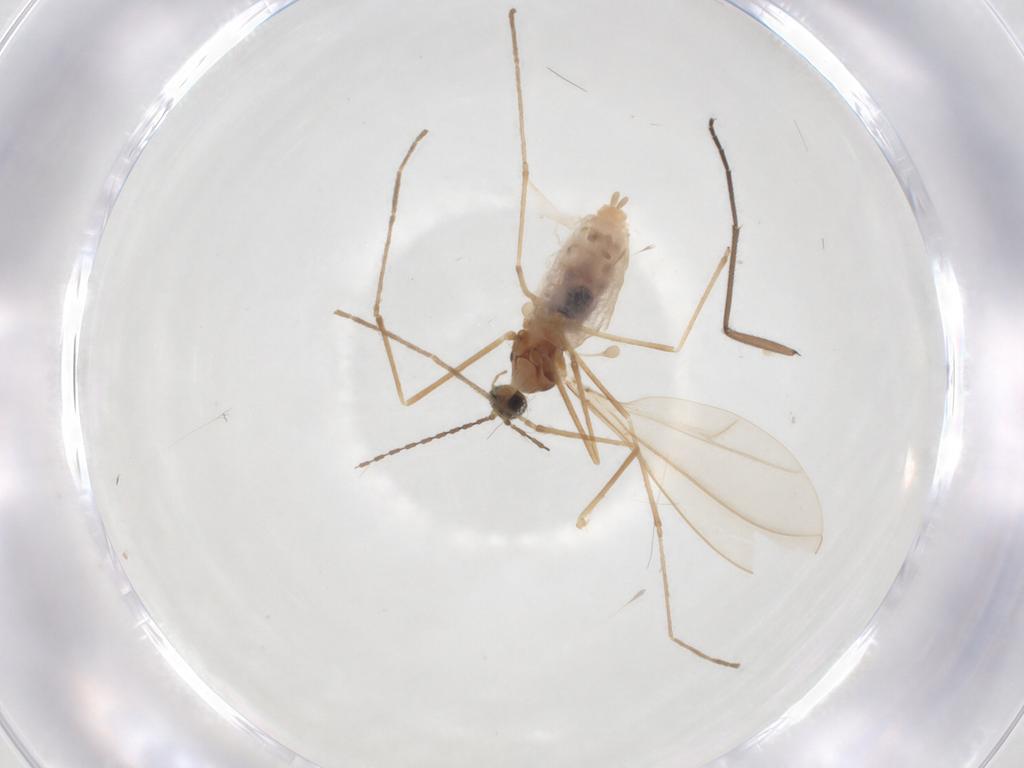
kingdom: Animalia
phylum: Arthropoda
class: Insecta
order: Diptera
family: Cecidomyiidae
